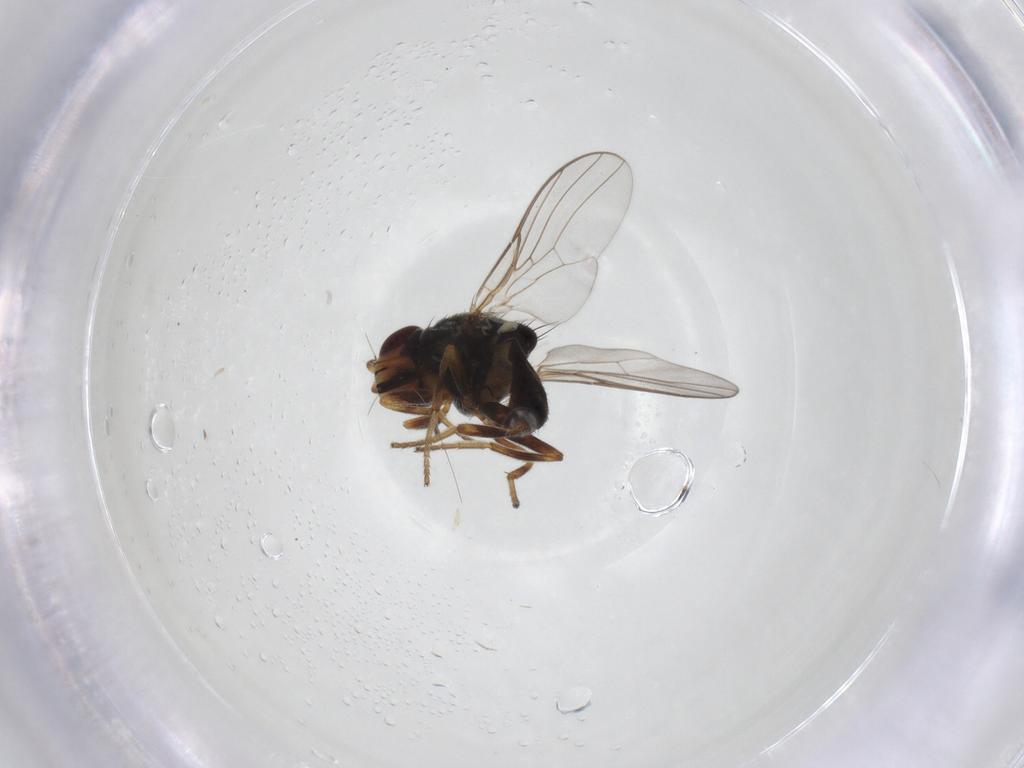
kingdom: Animalia
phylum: Arthropoda
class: Insecta
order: Diptera
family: Chloropidae
